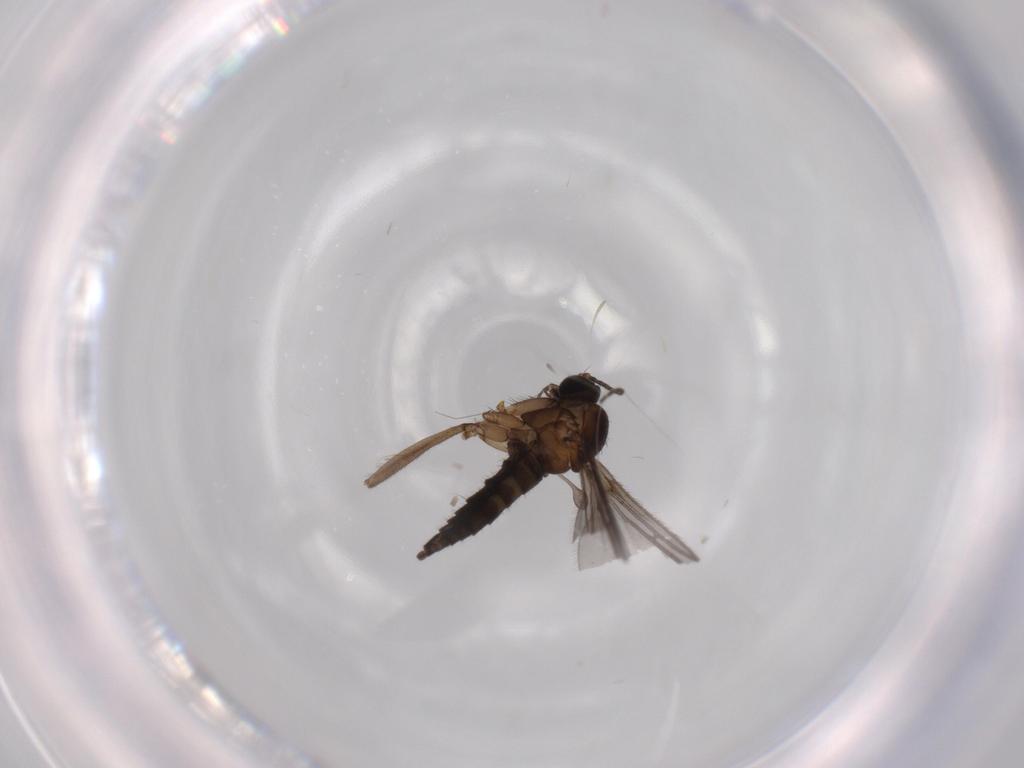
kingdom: Animalia
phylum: Arthropoda
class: Insecta
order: Diptera
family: Sciaridae
